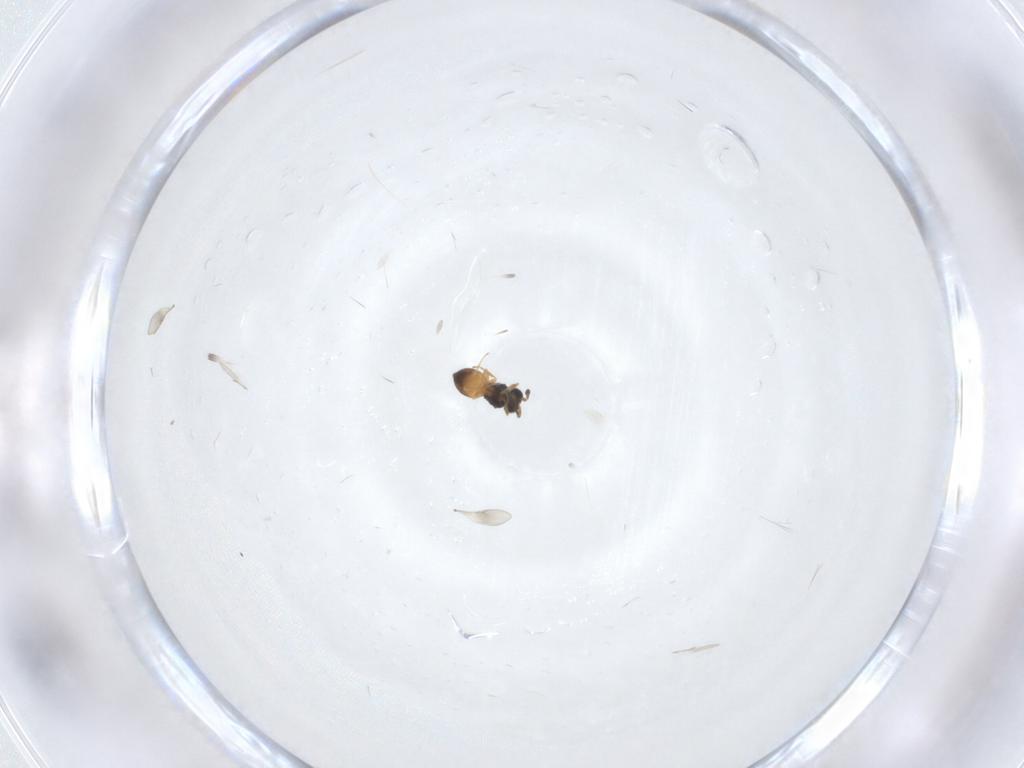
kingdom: Animalia
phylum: Arthropoda
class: Insecta
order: Hymenoptera
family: Scelionidae
